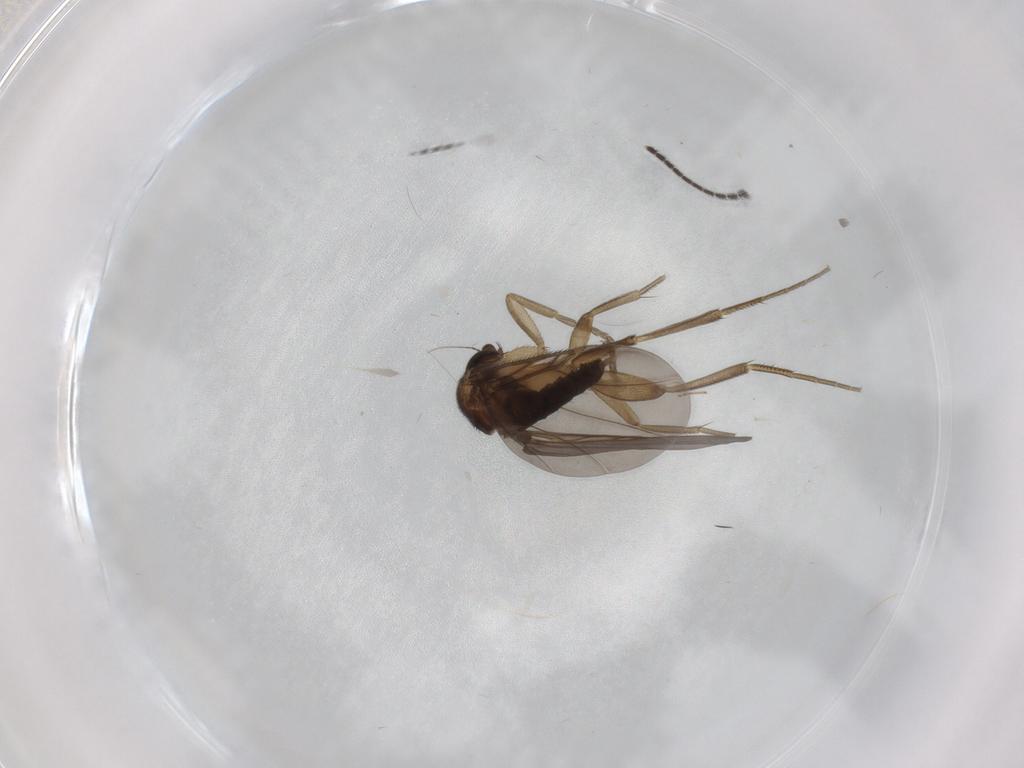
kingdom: Animalia
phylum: Arthropoda
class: Insecta
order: Diptera
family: Phoridae
